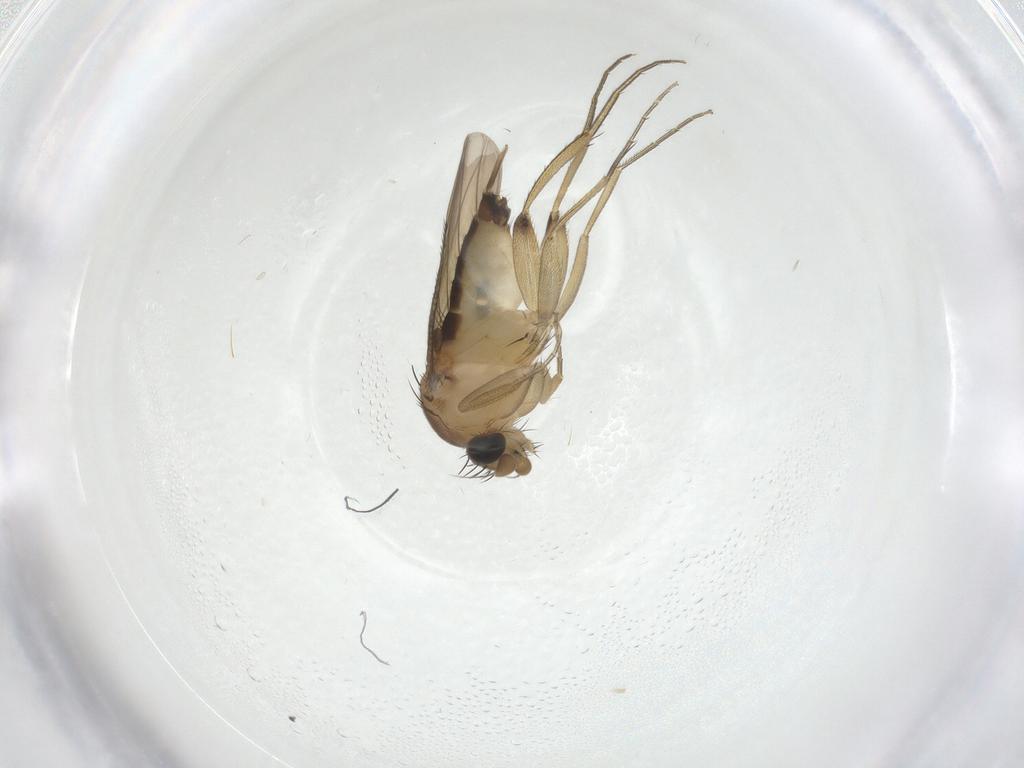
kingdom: Animalia
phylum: Arthropoda
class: Insecta
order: Diptera
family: Phoridae
